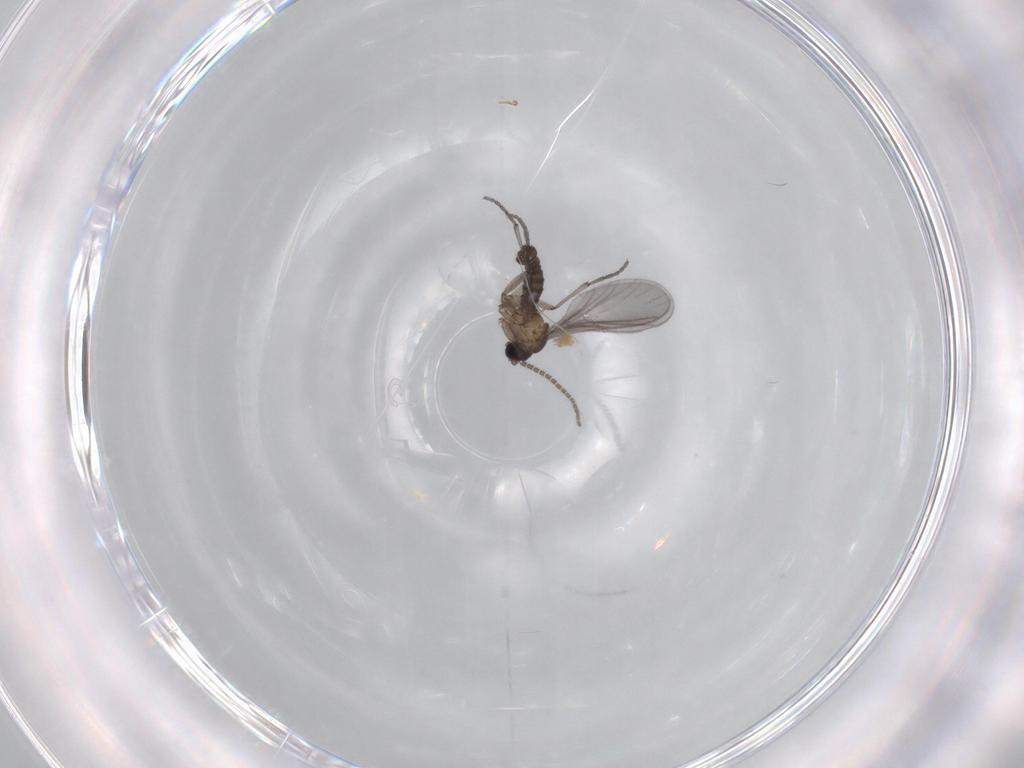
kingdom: Animalia
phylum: Arthropoda
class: Insecta
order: Diptera
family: Sciaridae
